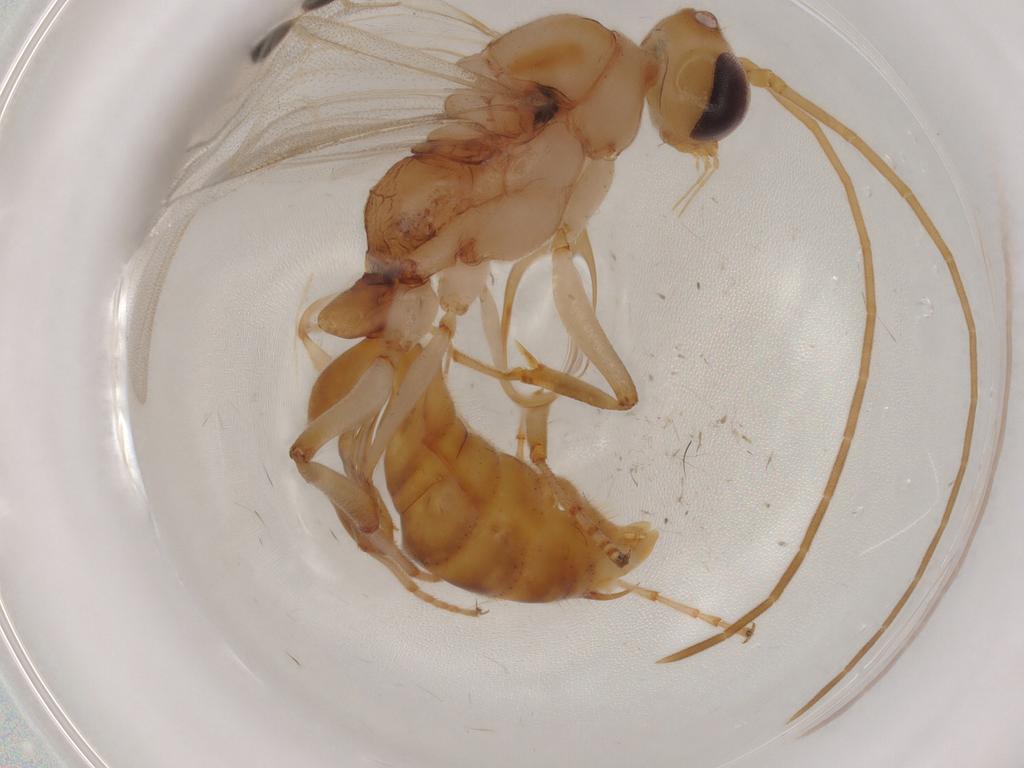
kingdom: Animalia
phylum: Arthropoda
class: Insecta
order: Hymenoptera
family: Formicidae
